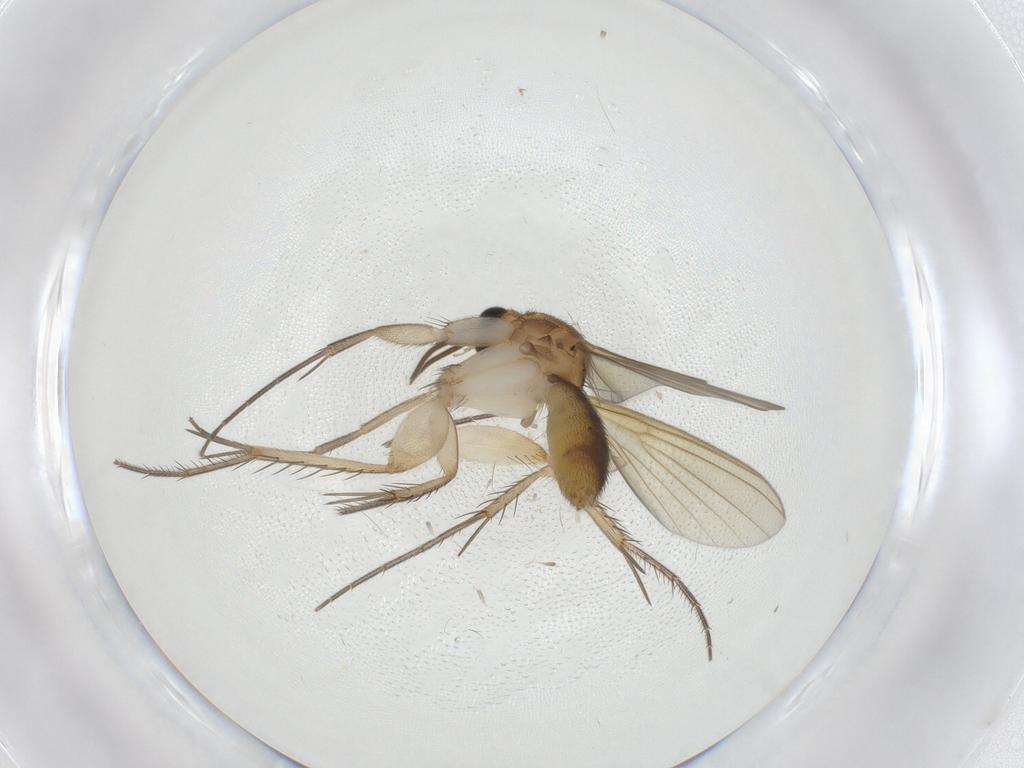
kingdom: Animalia
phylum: Arthropoda
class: Insecta
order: Diptera
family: Mycetophilidae
